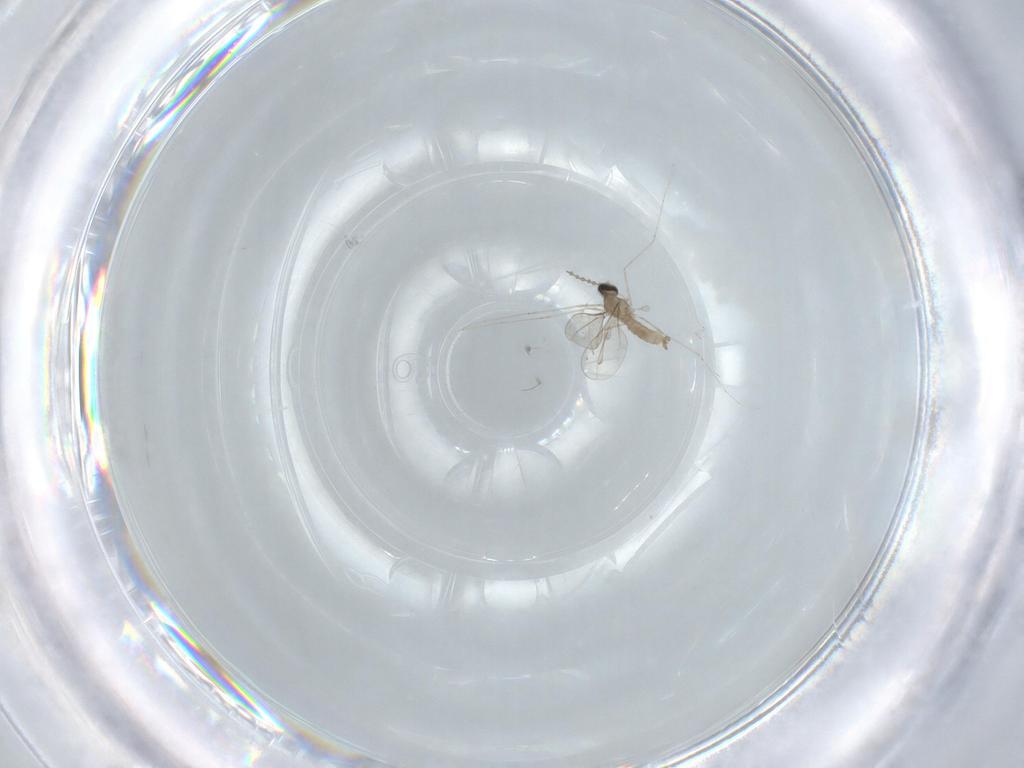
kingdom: Animalia
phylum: Arthropoda
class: Insecta
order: Diptera
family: Cecidomyiidae
